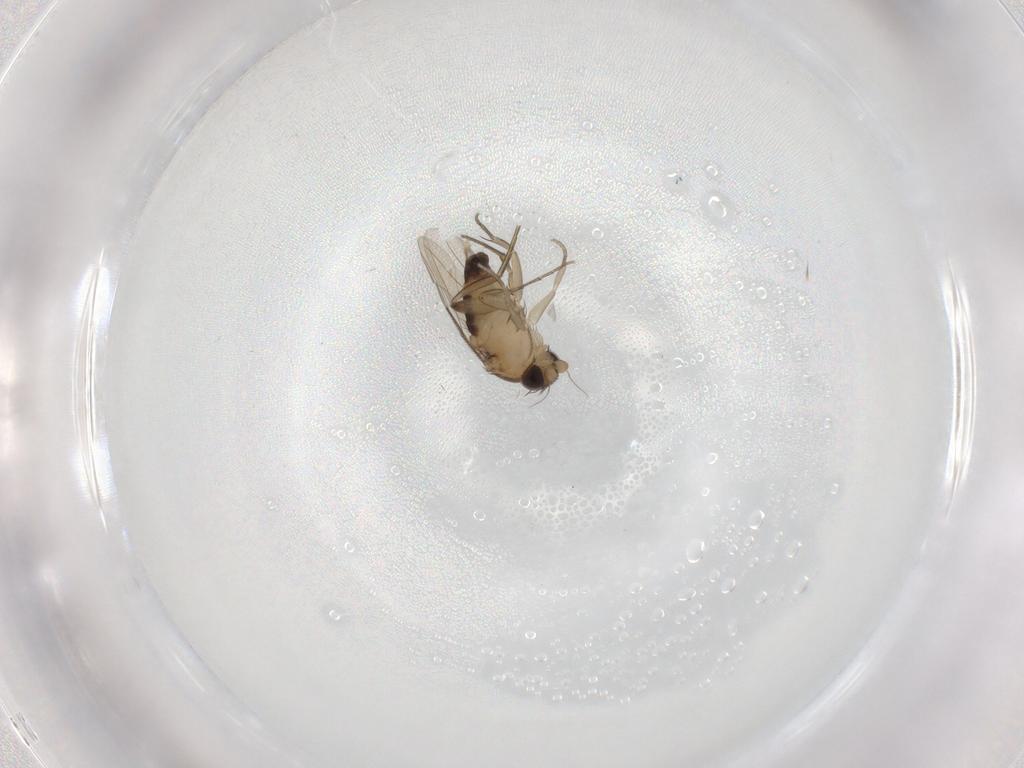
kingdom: Animalia
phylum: Arthropoda
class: Insecta
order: Diptera
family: Phoridae
